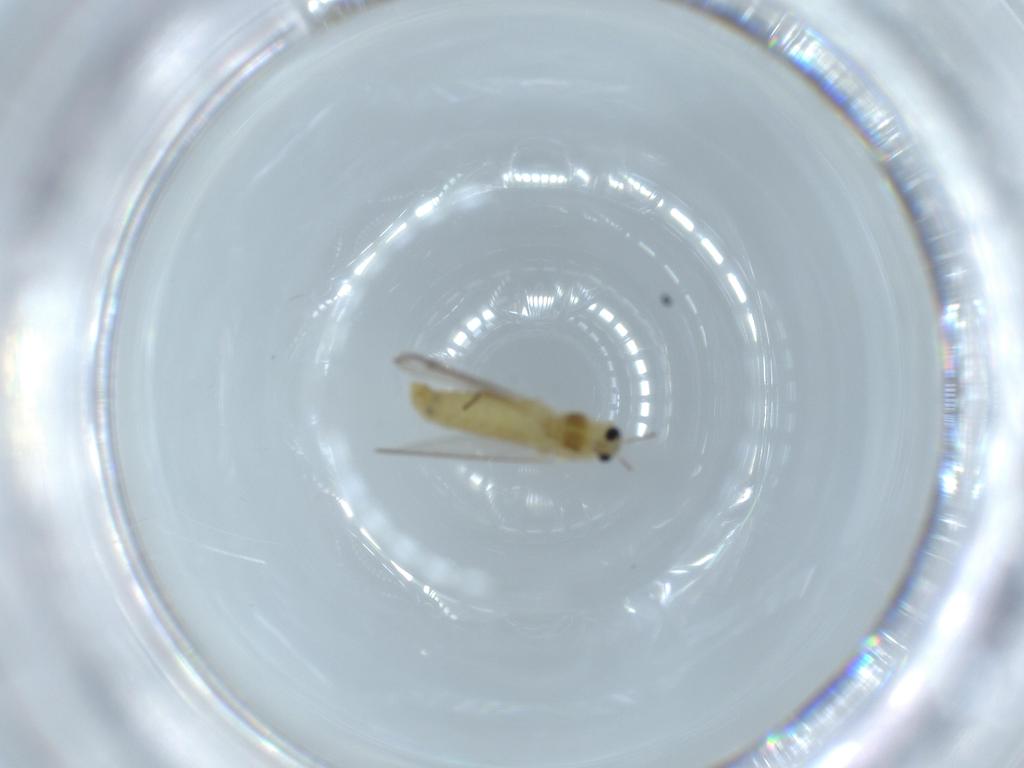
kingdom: Animalia
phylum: Arthropoda
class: Insecta
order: Diptera
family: Chironomidae
